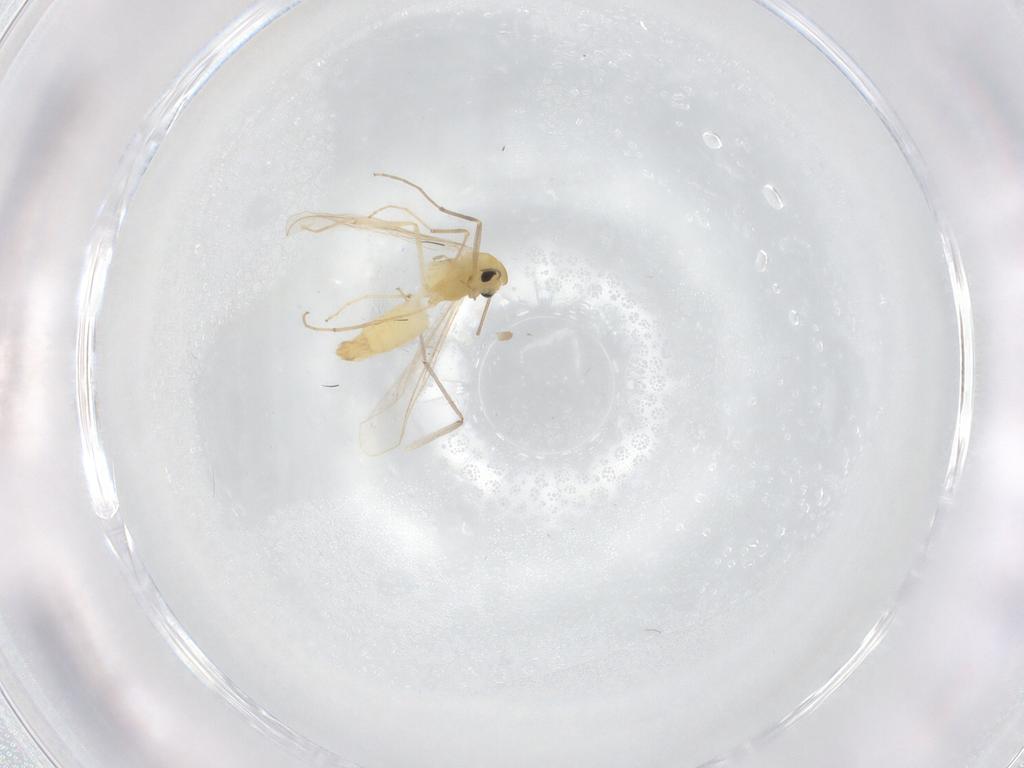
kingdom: Animalia
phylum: Arthropoda
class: Insecta
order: Diptera
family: Chironomidae
